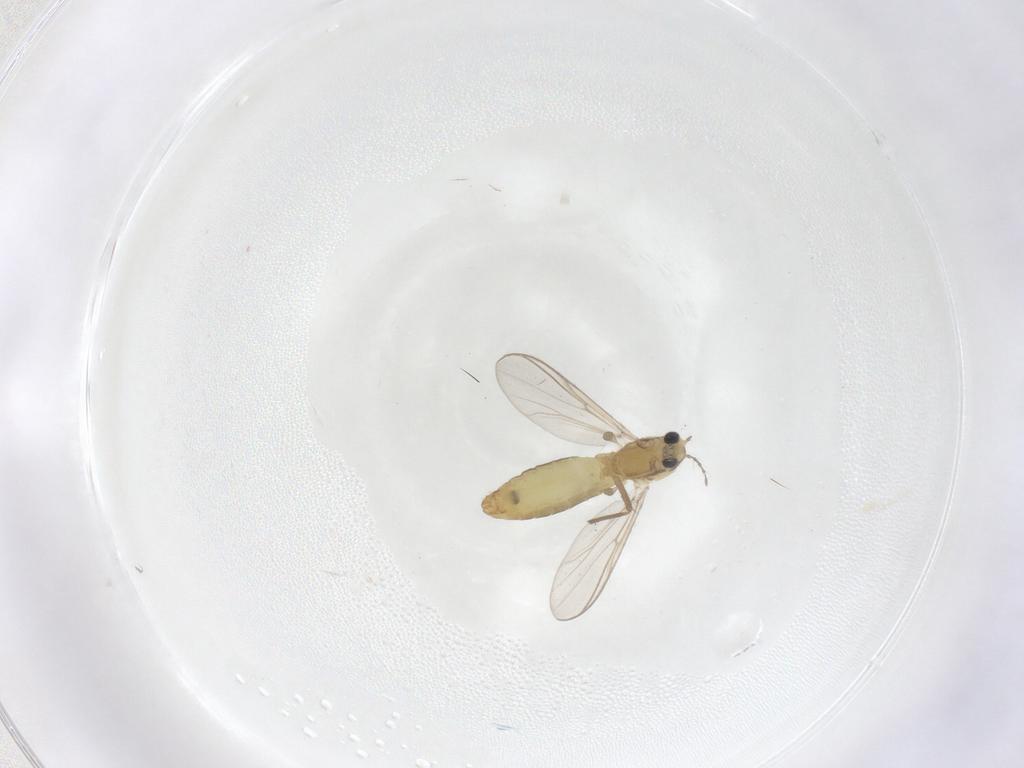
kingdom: Animalia
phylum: Arthropoda
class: Insecta
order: Diptera
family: Chironomidae
